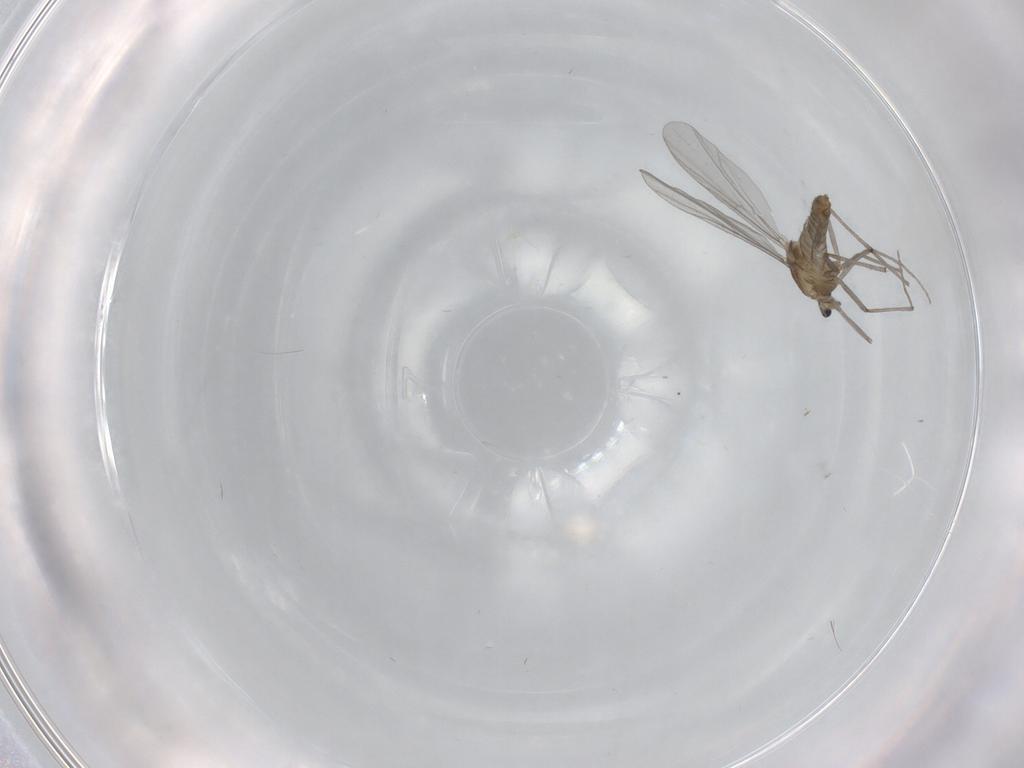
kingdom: Animalia
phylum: Arthropoda
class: Insecta
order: Diptera
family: Chironomidae
